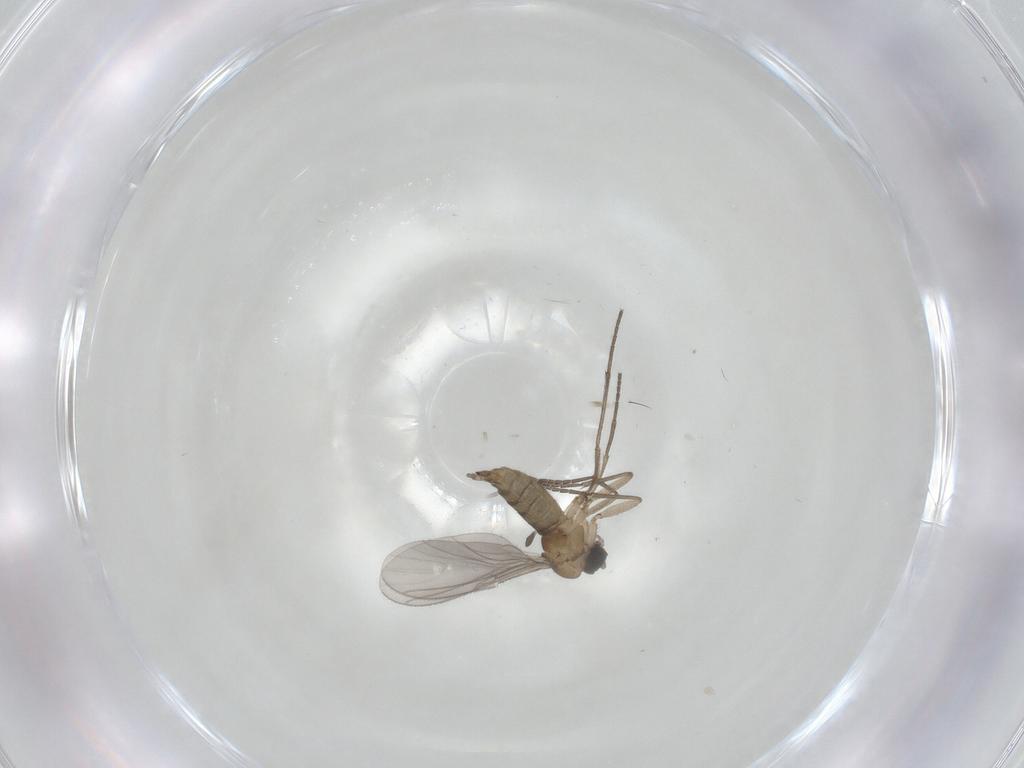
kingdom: Animalia
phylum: Arthropoda
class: Insecta
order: Diptera
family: Sciaridae
